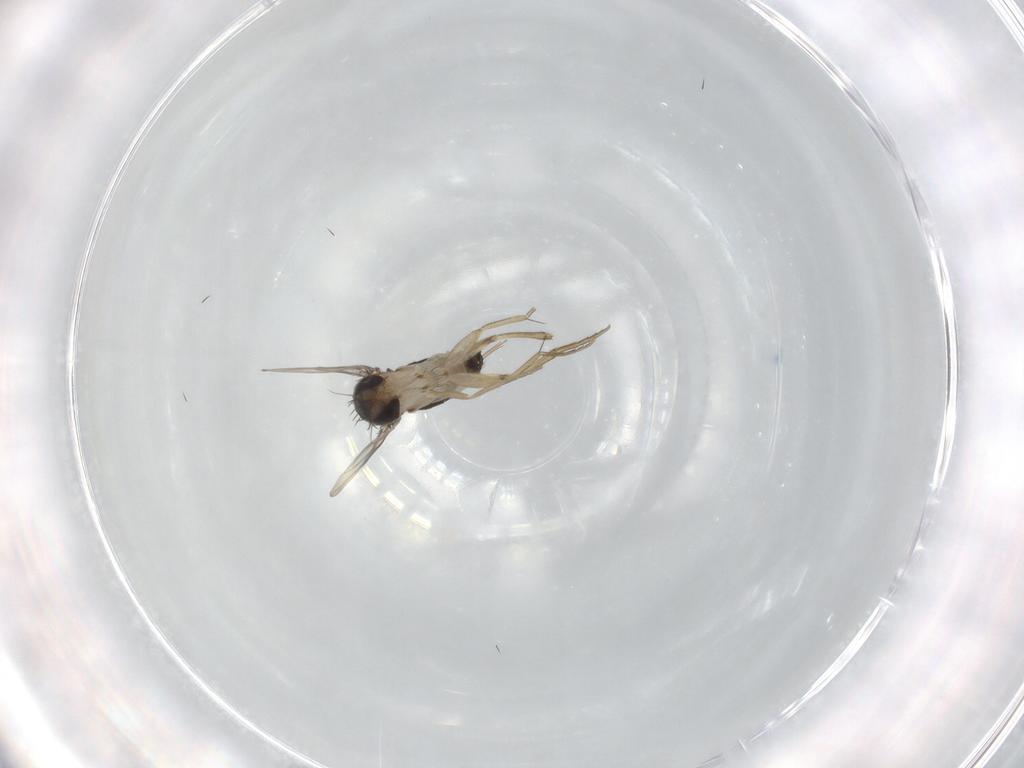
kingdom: Animalia
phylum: Arthropoda
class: Insecta
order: Diptera
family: Phoridae
